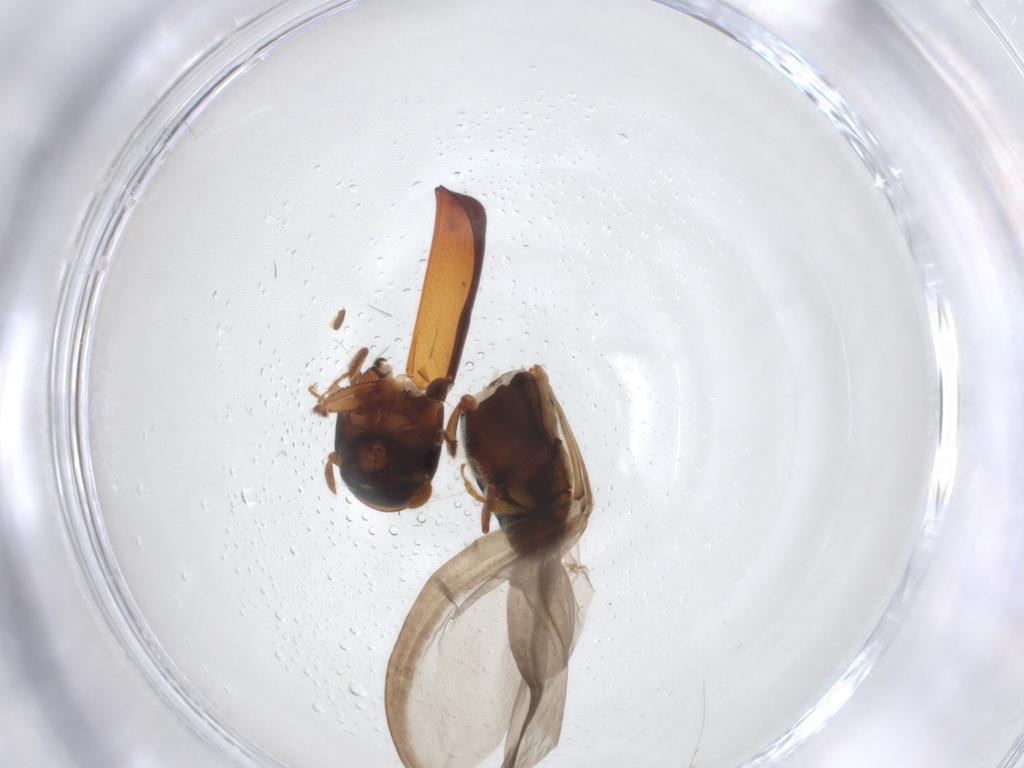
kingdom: Animalia
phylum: Arthropoda
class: Insecta
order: Coleoptera
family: Curculionidae
